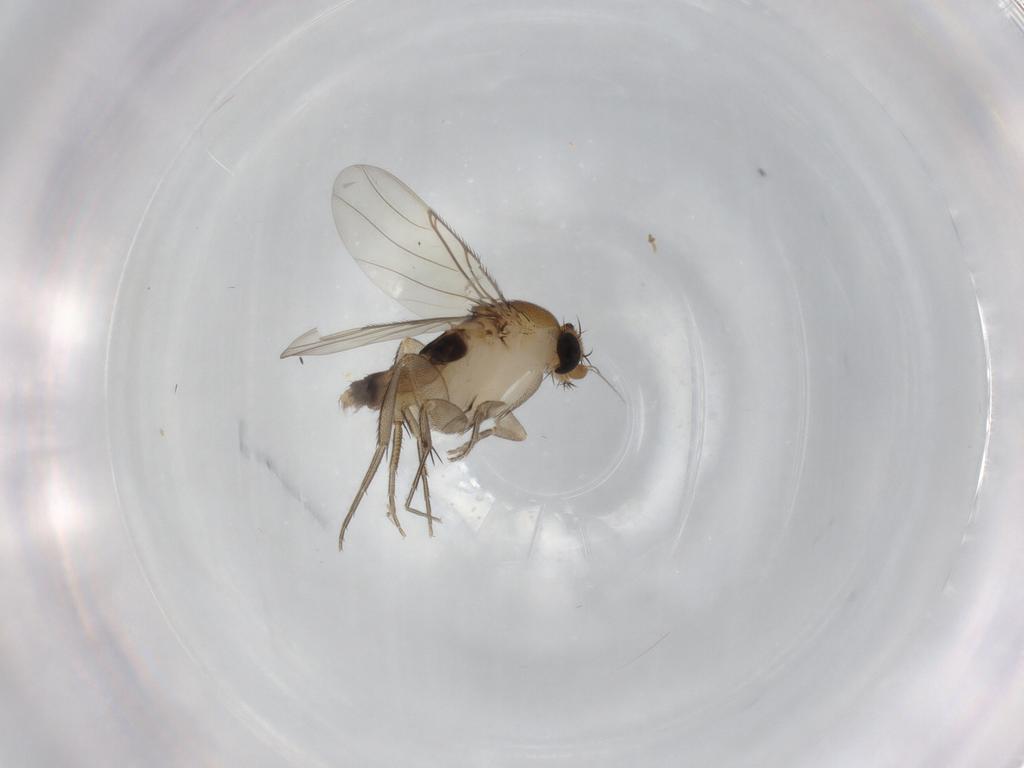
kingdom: Animalia
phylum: Arthropoda
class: Insecta
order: Diptera
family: Phoridae
